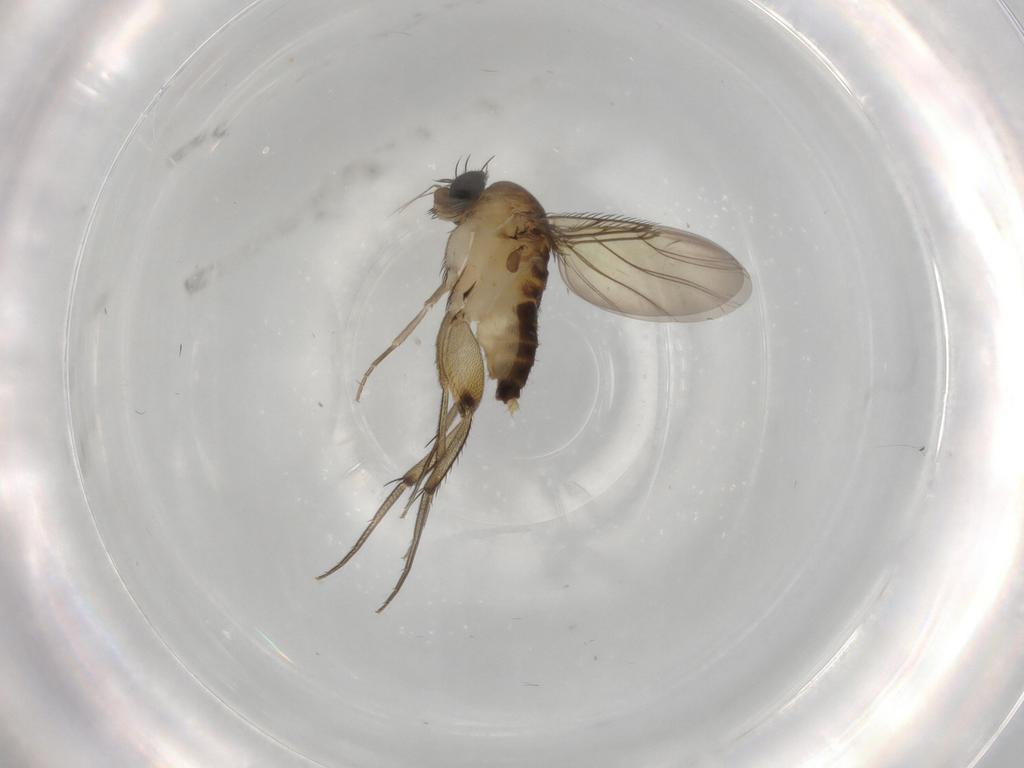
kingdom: Animalia
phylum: Arthropoda
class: Insecta
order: Diptera
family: Phoridae
